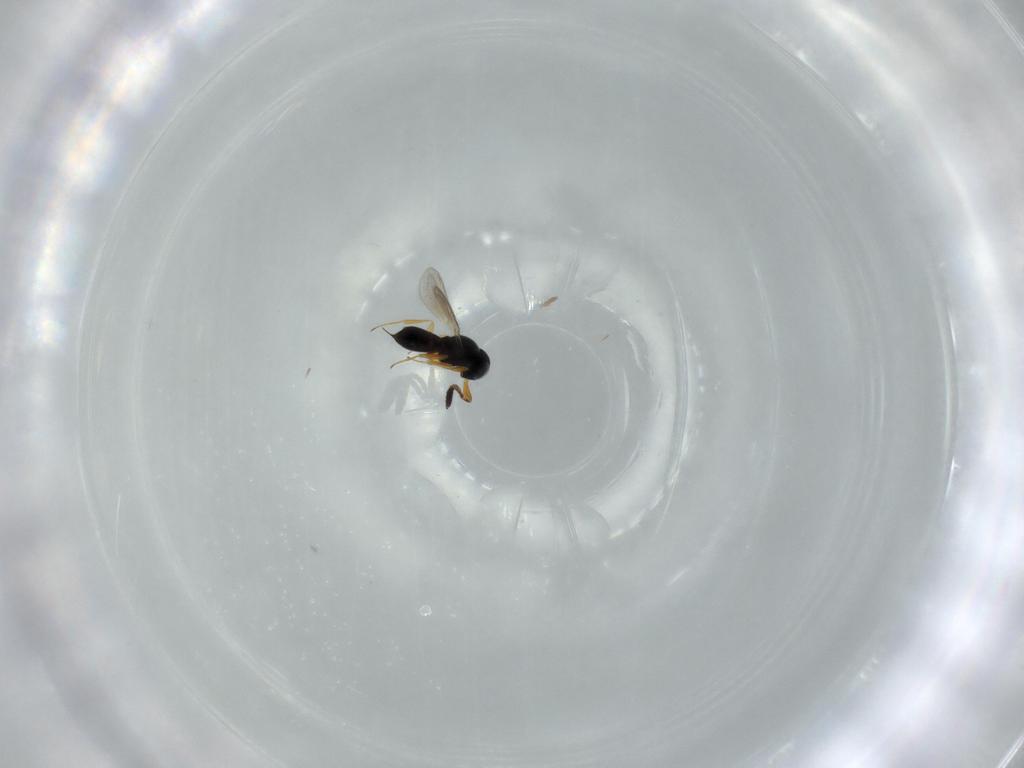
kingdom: Animalia
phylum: Arthropoda
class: Insecta
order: Hymenoptera
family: Scelionidae
